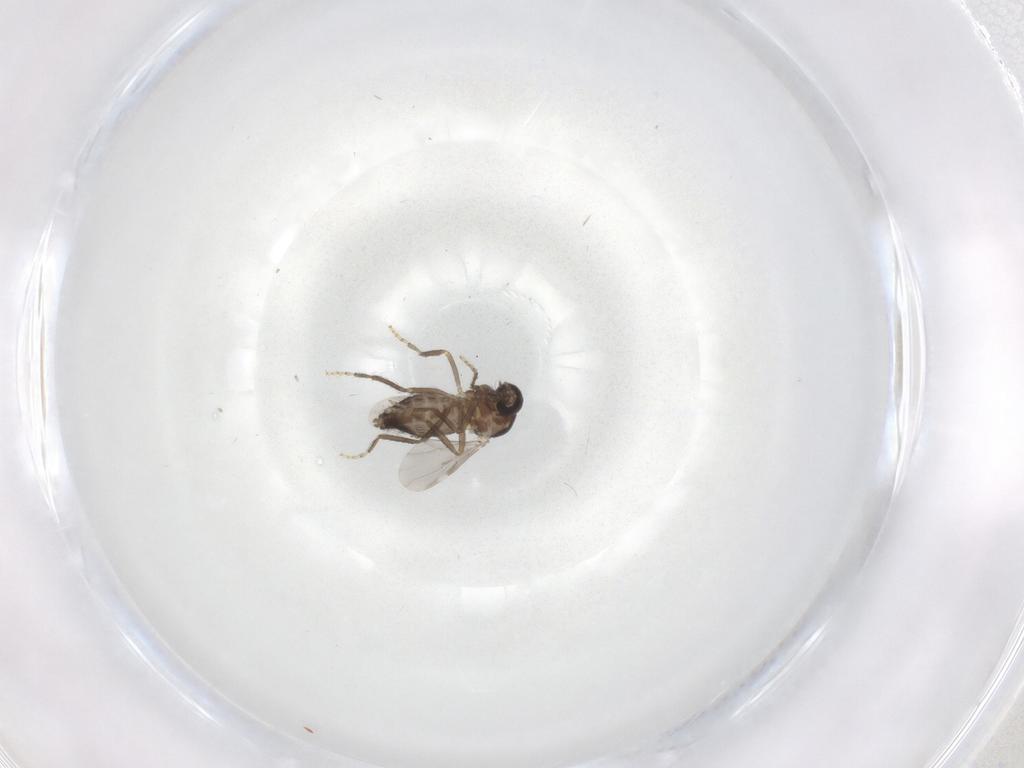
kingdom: Animalia
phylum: Arthropoda
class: Insecta
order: Diptera
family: Ceratopogonidae
